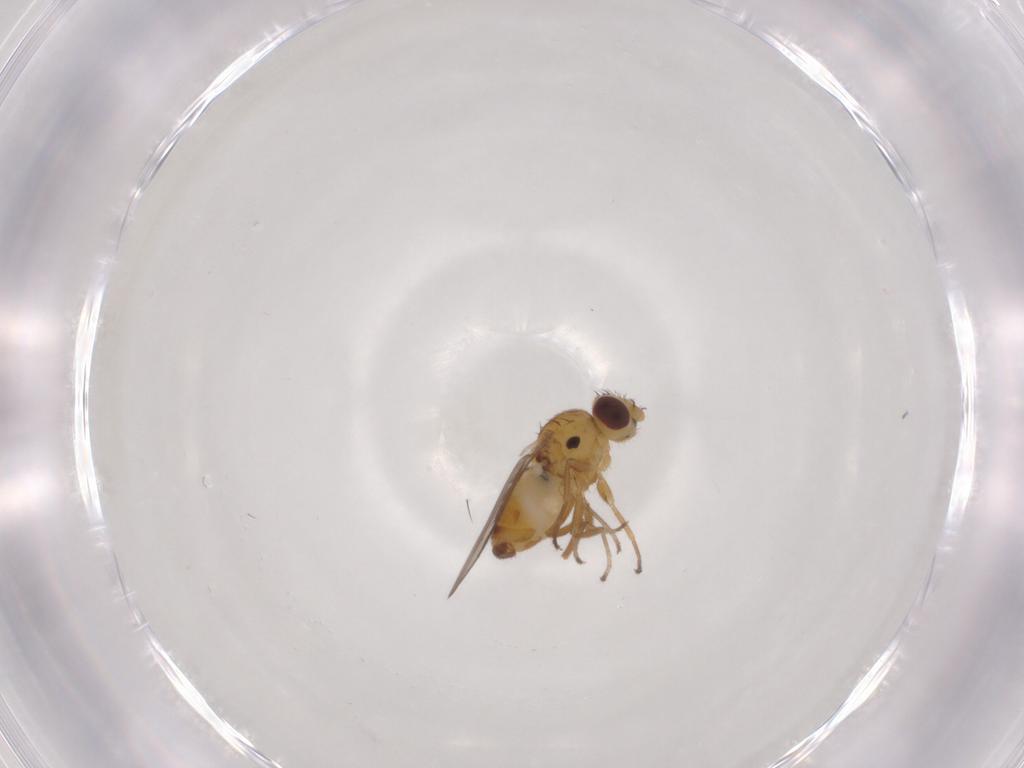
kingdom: Animalia
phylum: Arthropoda
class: Insecta
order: Diptera
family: Chloropidae
